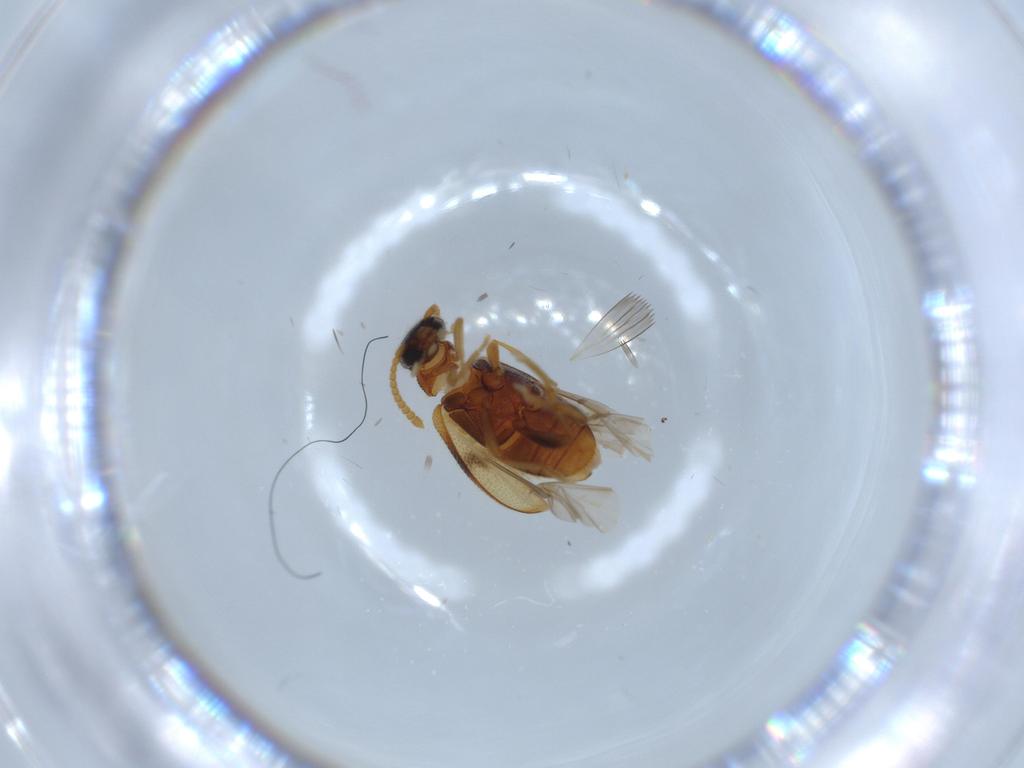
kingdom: Animalia
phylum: Arthropoda
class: Insecta
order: Coleoptera
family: Aderidae
